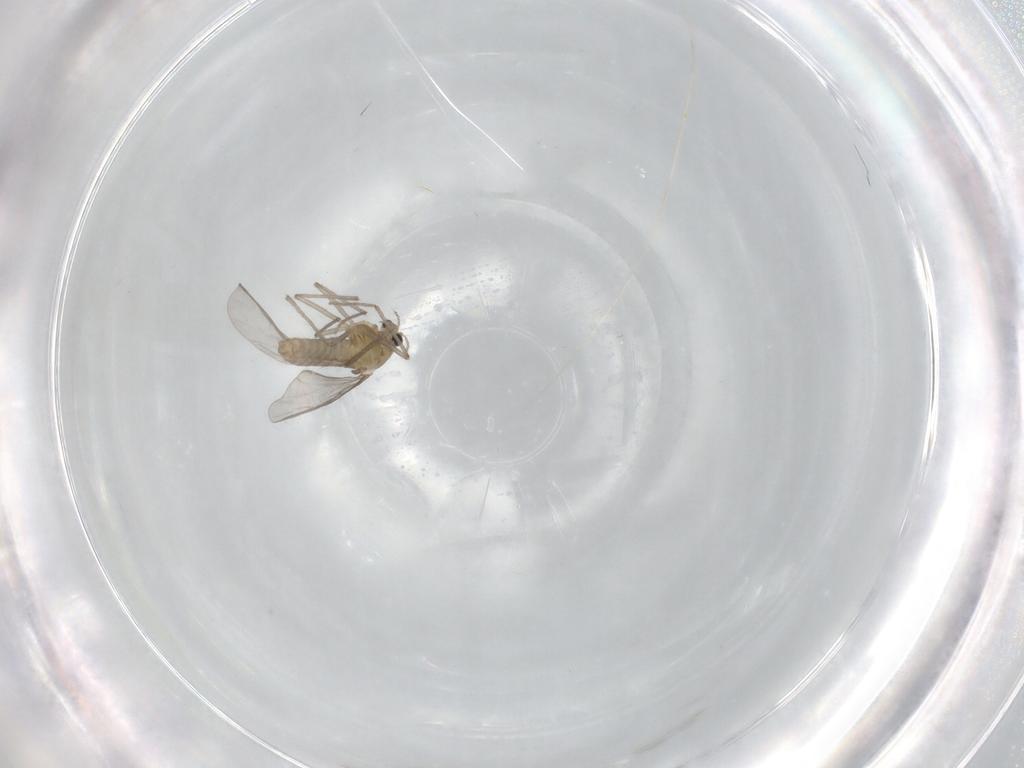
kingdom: Animalia
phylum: Arthropoda
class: Insecta
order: Diptera
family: Chironomidae
